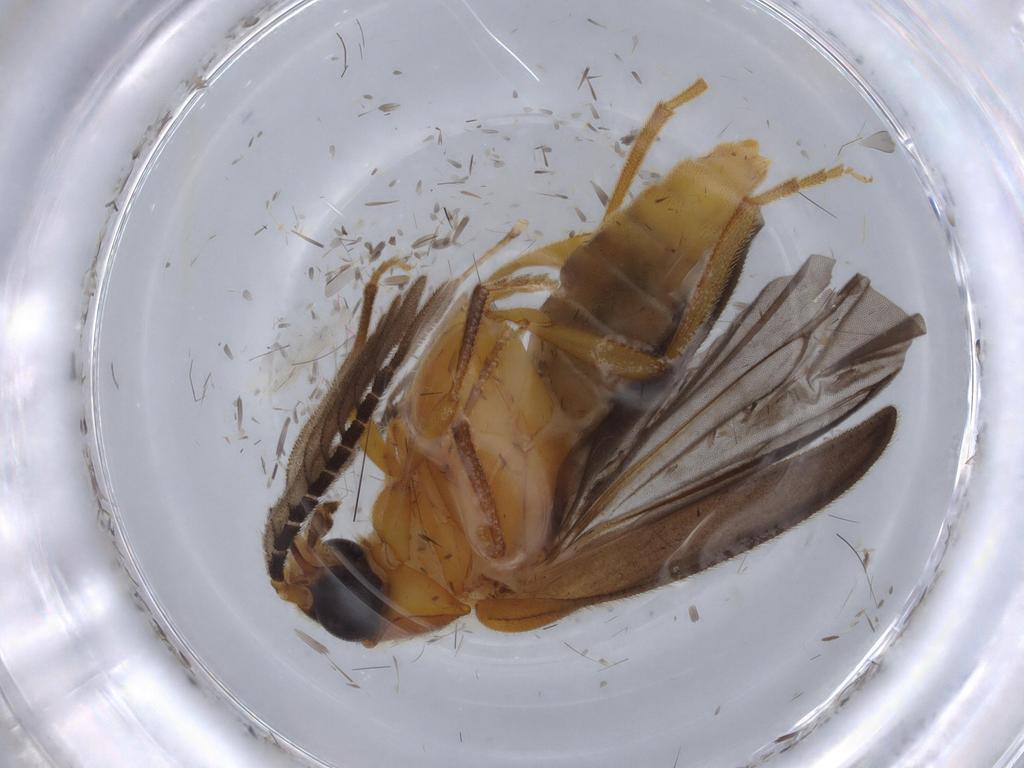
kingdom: Animalia
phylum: Arthropoda
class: Insecta
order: Coleoptera
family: Lampyridae
